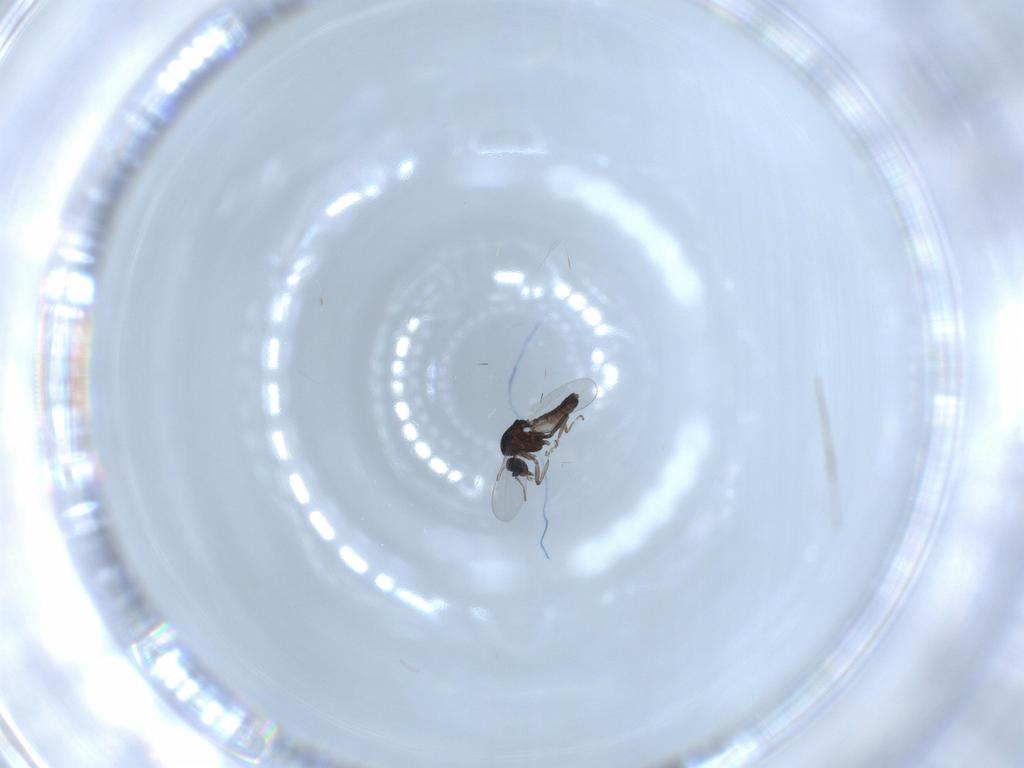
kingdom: Animalia
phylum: Arthropoda
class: Insecta
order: Diptera
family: Ceratopogonidae
